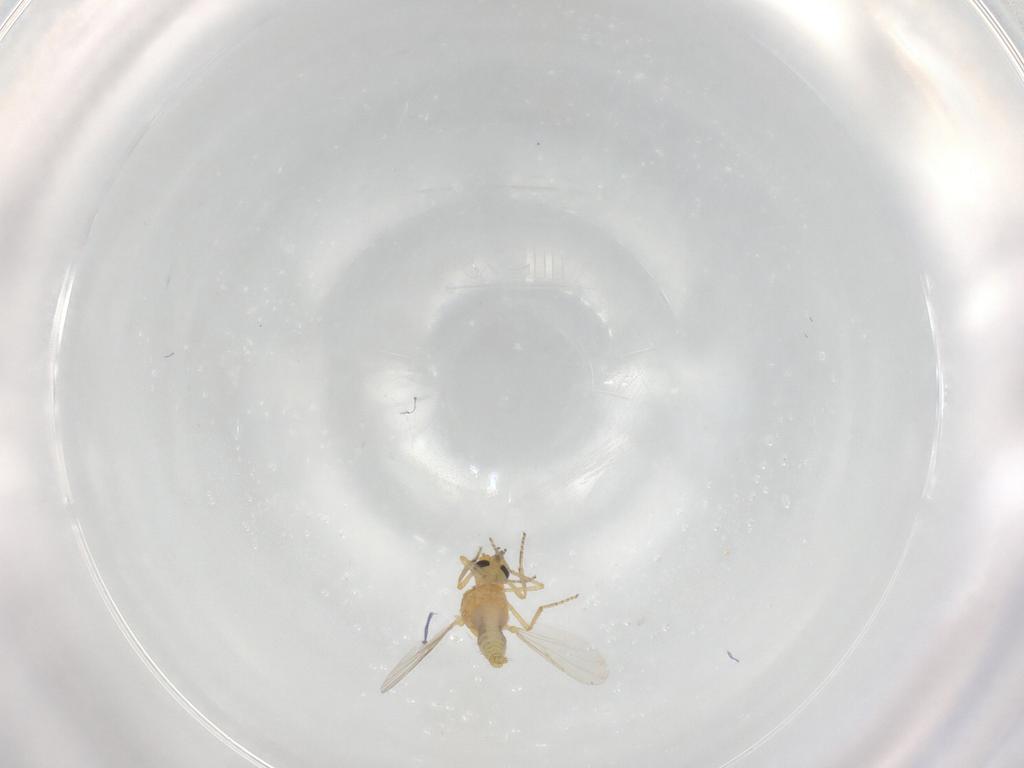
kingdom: Animalia
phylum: Arthropoda
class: Insecta
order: Diptera
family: Ceratopogonidae
